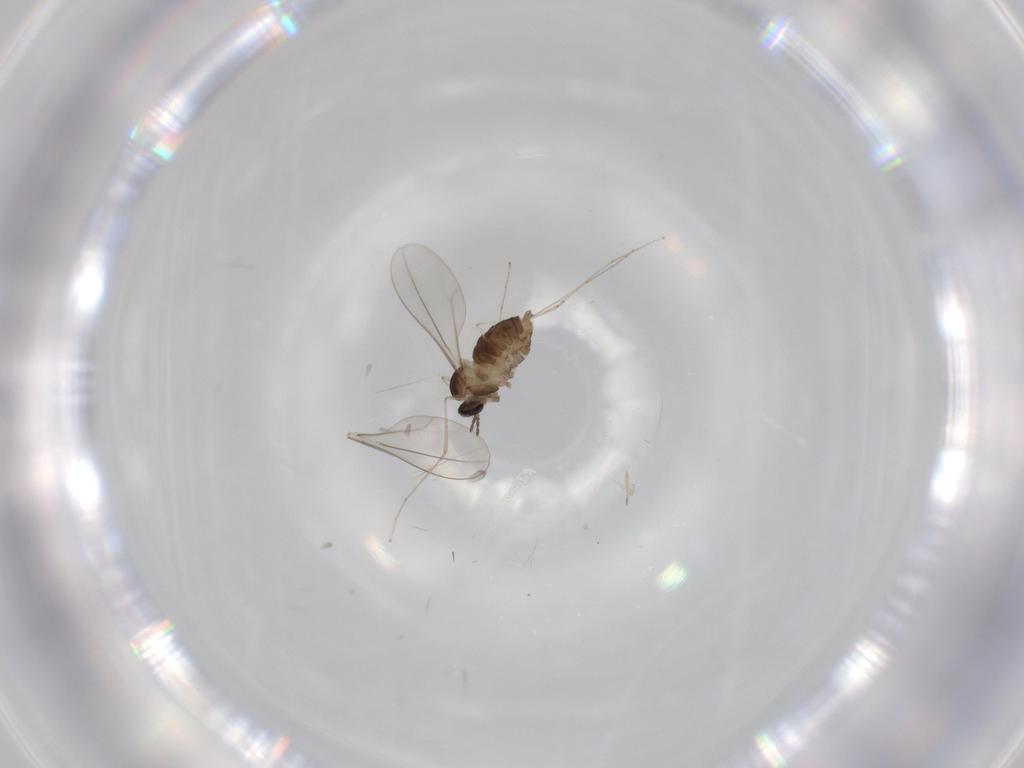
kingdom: Animalia
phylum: Arthropoda
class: Insecta
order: Diptera
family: Cecidomyiidae
